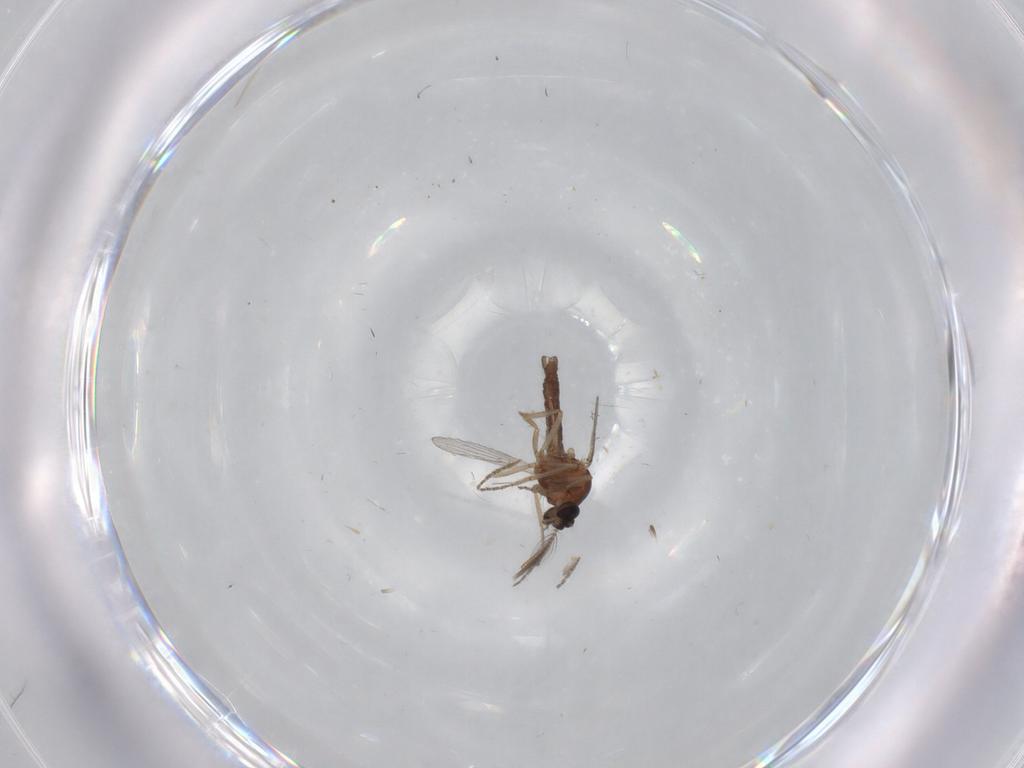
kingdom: Animalia
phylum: Arthropoda
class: Insecta
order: Diptera
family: Ceratopogonidae
